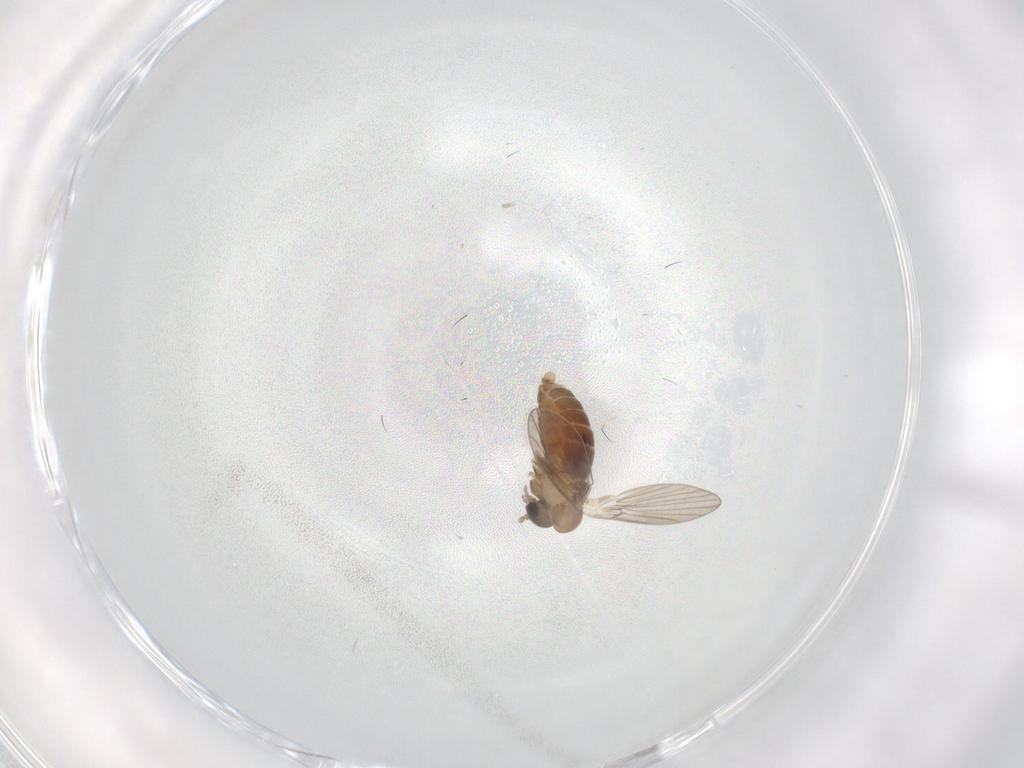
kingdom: Animalia
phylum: Arthropoda
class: Insecta
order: Diptera
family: Psychodidae
